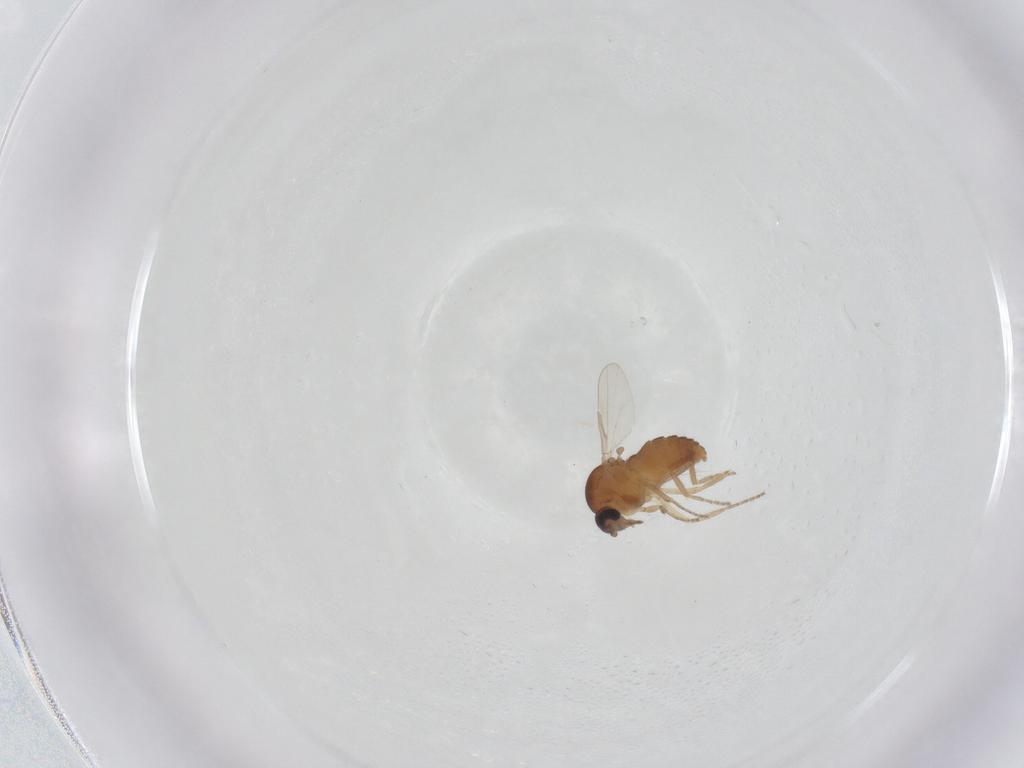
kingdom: Animalia
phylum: Arthropoda
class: Insecta
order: Diptera
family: Ceratopogonidae
